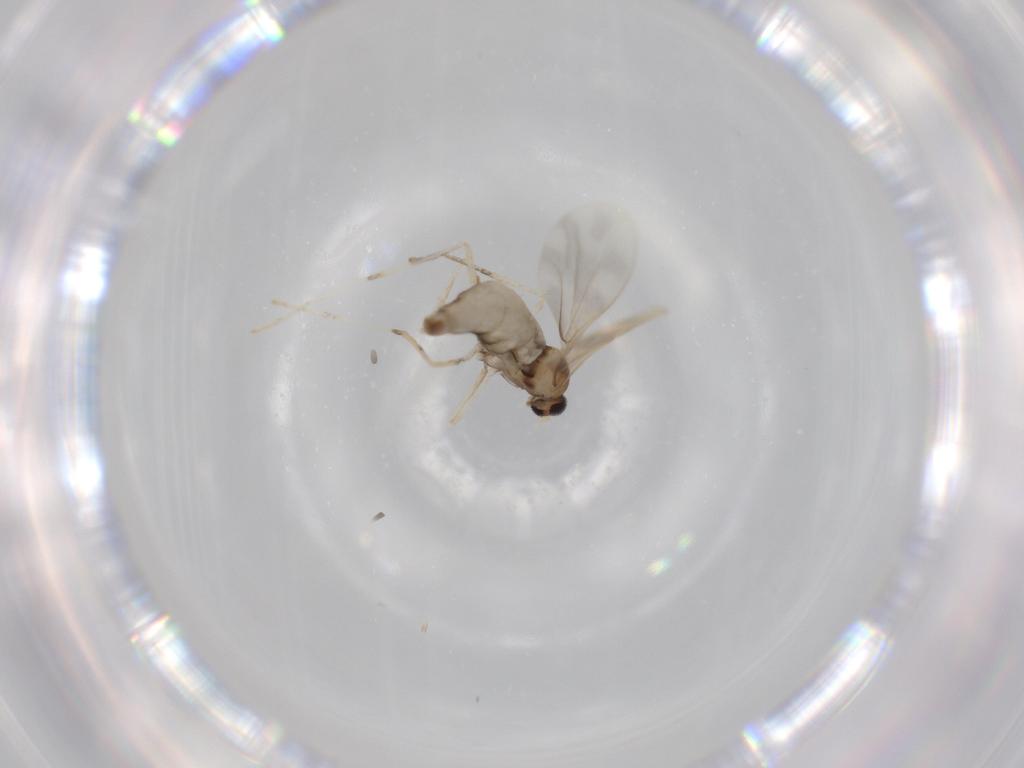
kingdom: Animalia
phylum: Arthropoda
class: Insecta
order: Diptera
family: Cecidomyiidae
